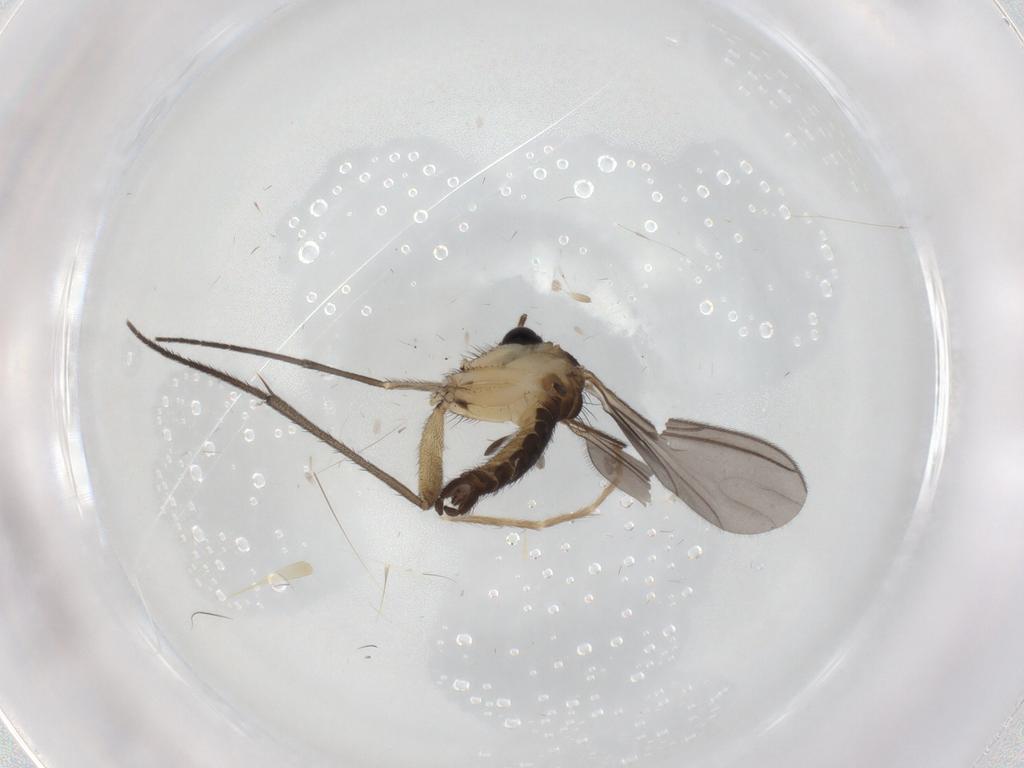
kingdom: Animalia
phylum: Arthropoda
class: Insecta
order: Diptera
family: Sciaridae
